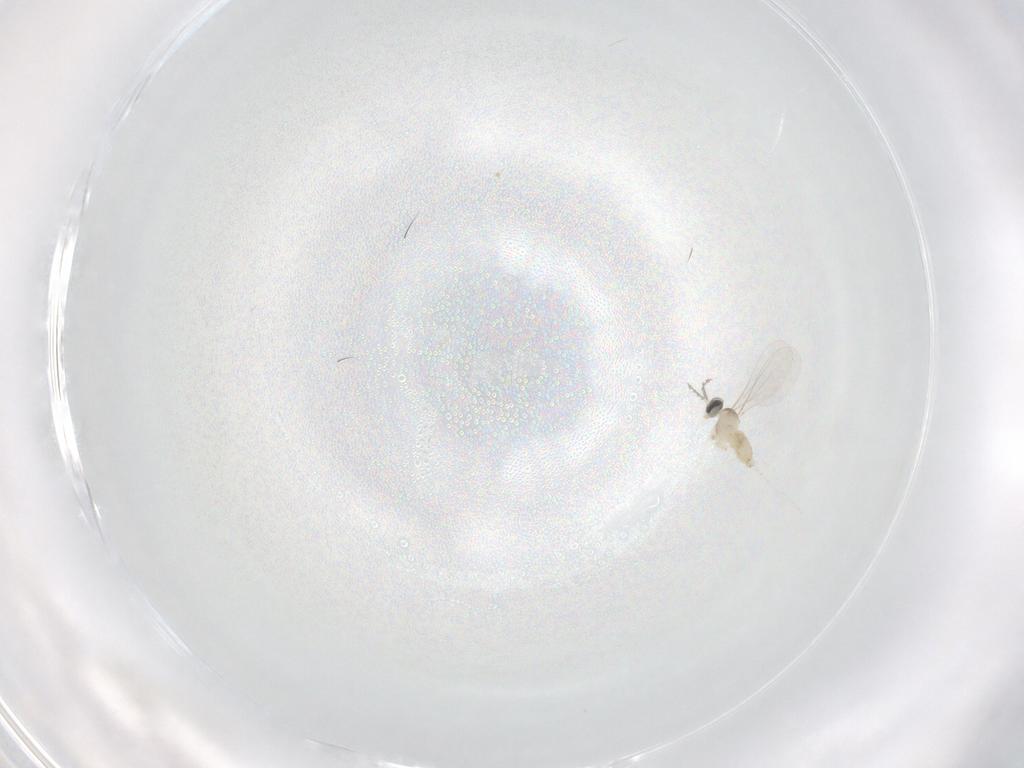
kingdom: Animalia
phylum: Arthropoda
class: Insecta
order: Diptera
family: Cecidomyiidae
